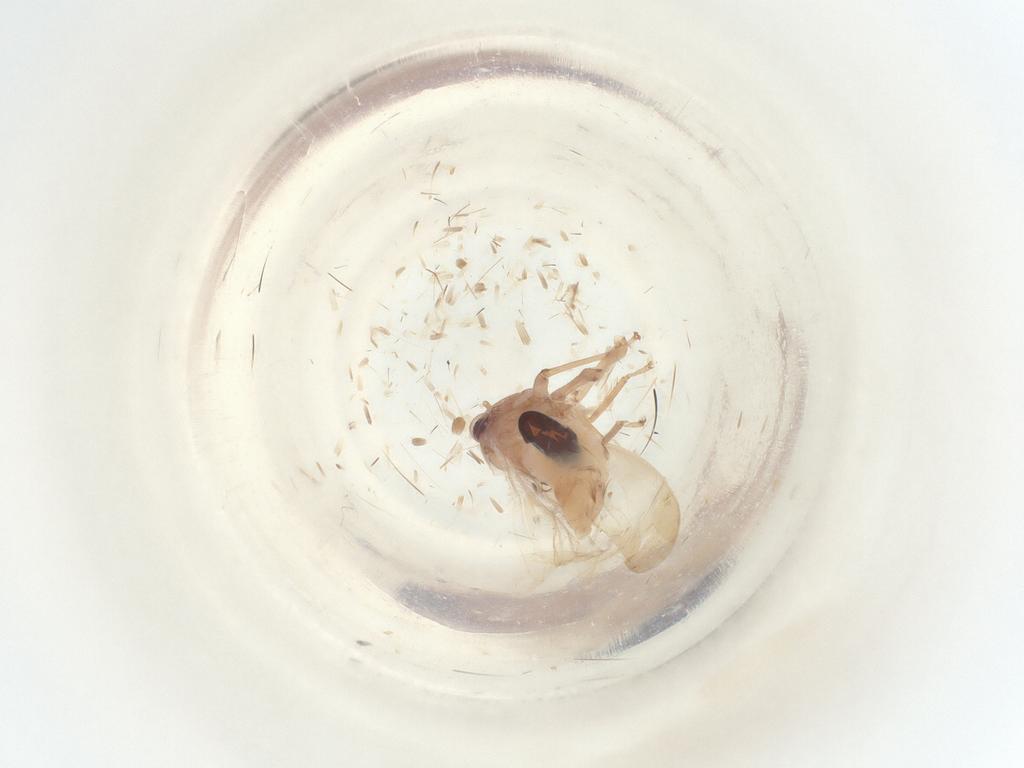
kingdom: Animalia
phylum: Arthropoda
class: Insecta
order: Hemiptera
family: Cicadellidae
